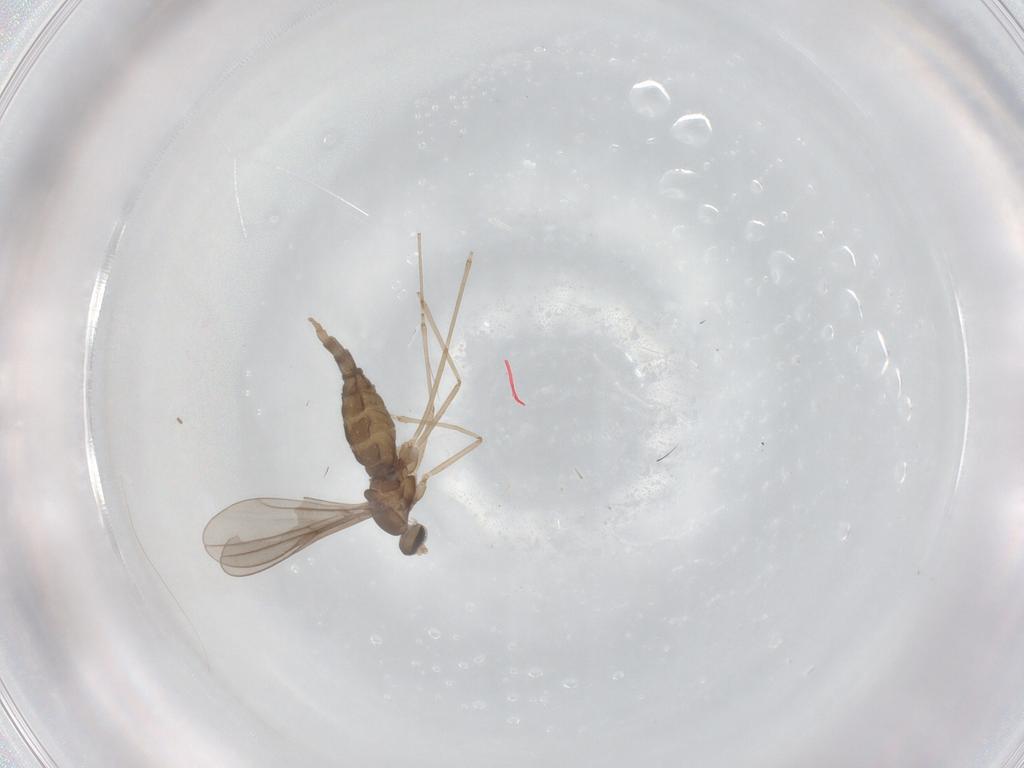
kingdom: Animalia
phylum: Arthropoda
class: Insecta
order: Diptera
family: Cecidomyiidae
